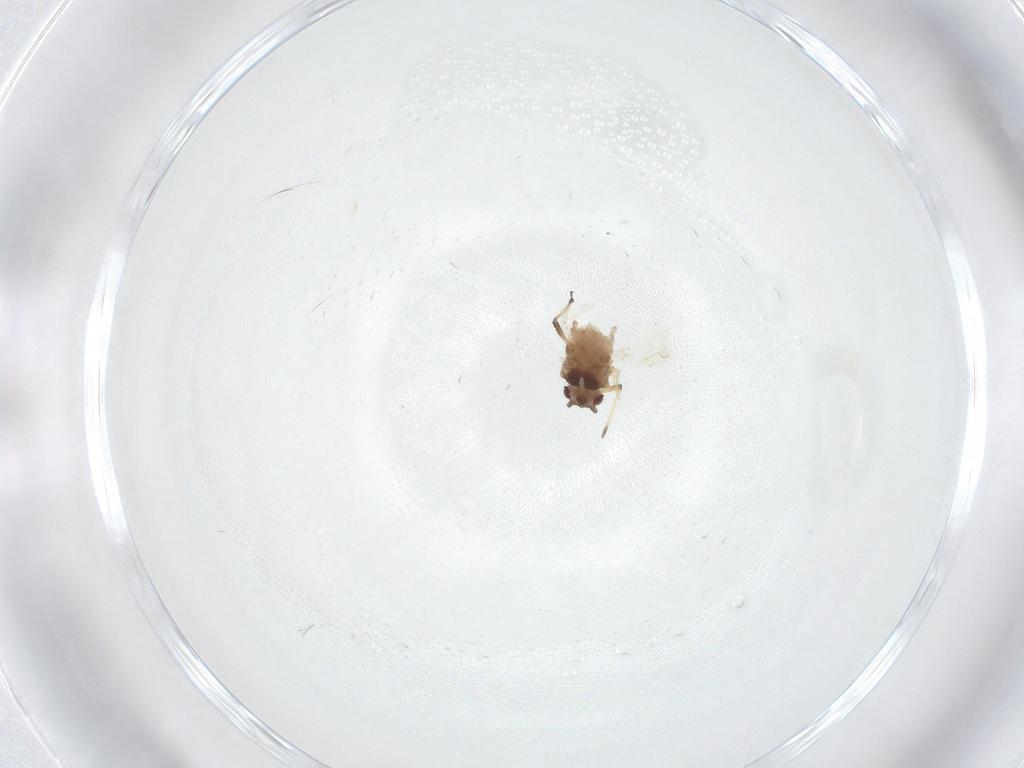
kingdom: Animalia
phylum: Arthropoda
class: Insecta
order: Hemiptera
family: Aphididae
